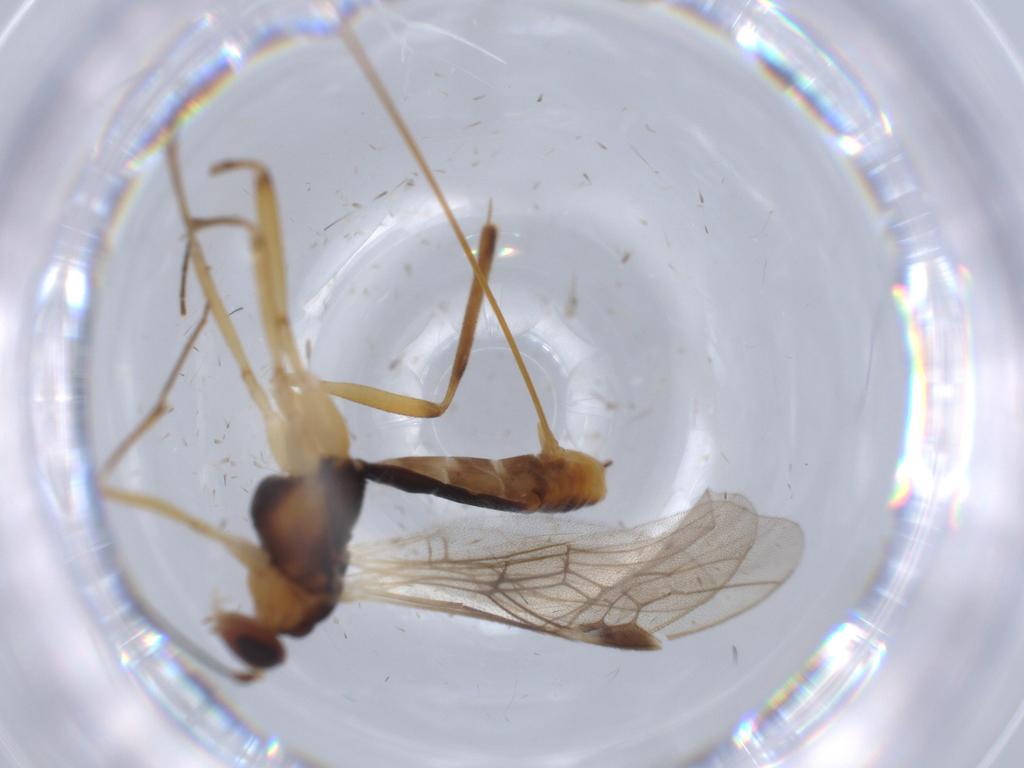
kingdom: Animalia
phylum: Arthropoda
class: Insecta
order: Hymenoptera
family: Braconidae
